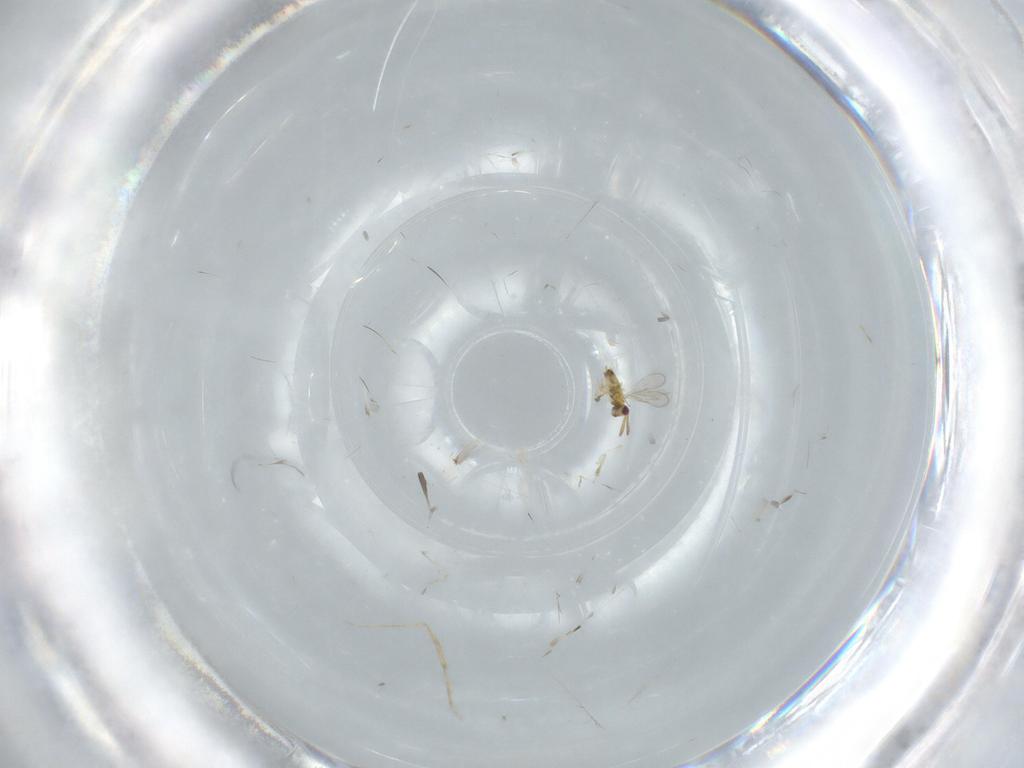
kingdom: Animalia
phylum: Arthropoda
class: Insecta
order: Hymenoptera
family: Aphelinidae
